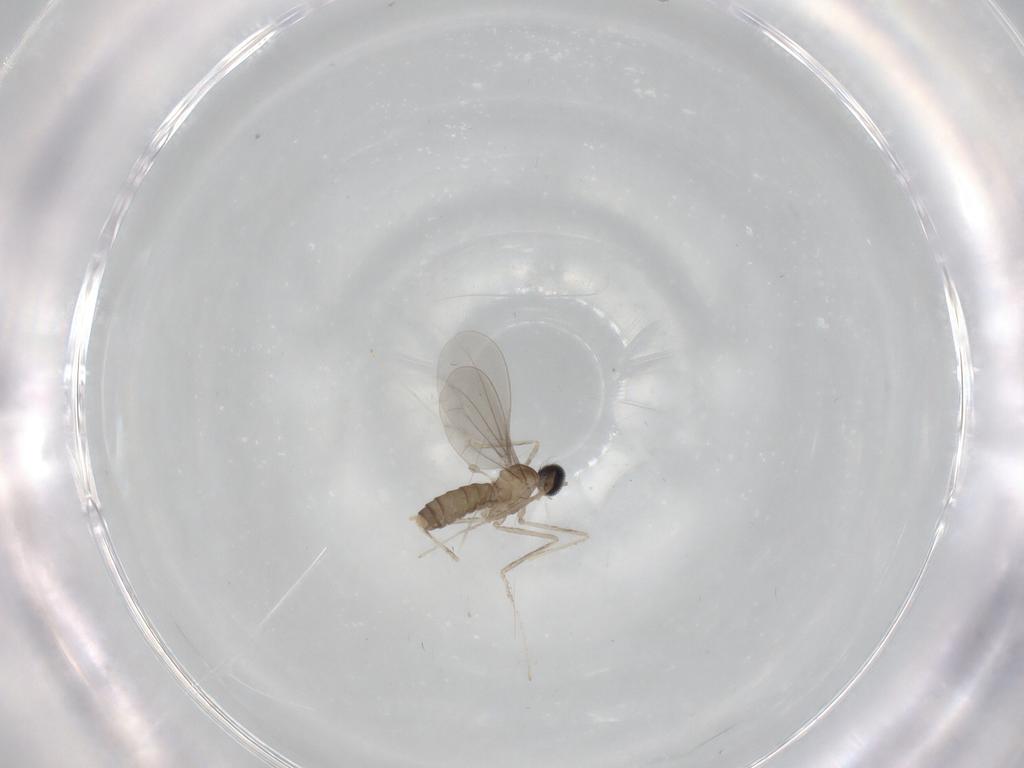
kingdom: Animalia
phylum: Arthropoda
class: Insecta
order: Diptera
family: Cecidomyiidae
